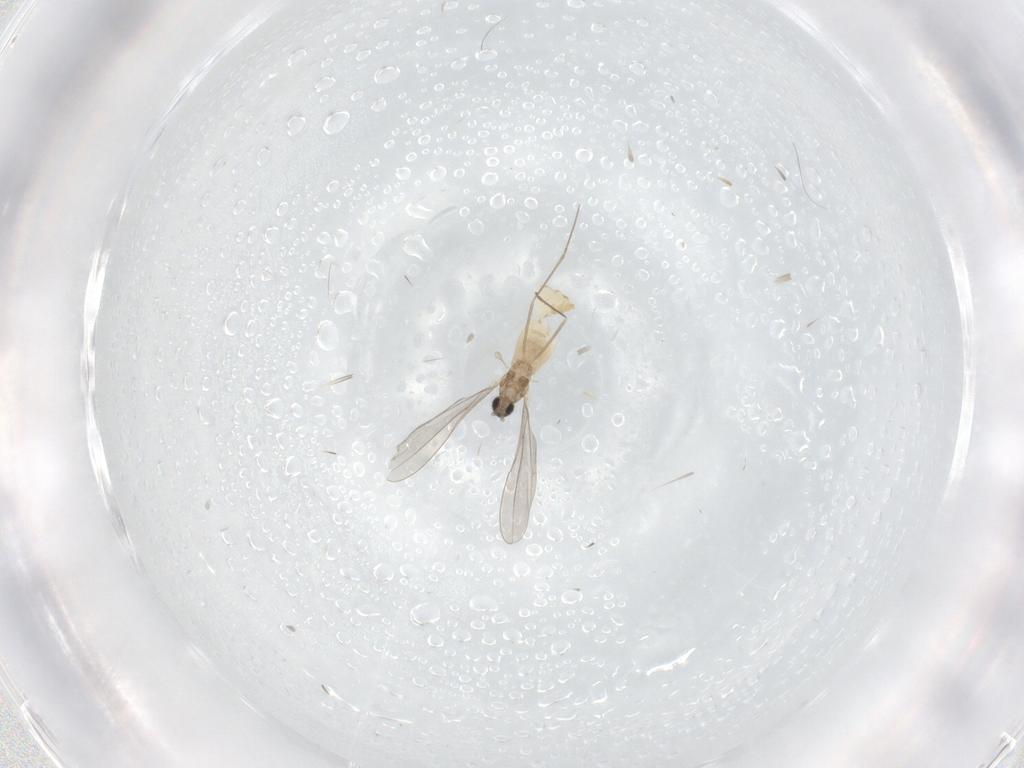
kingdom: Animalia
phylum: Arthropoda
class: Insecta
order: Diptera
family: Cecidomyiidae
